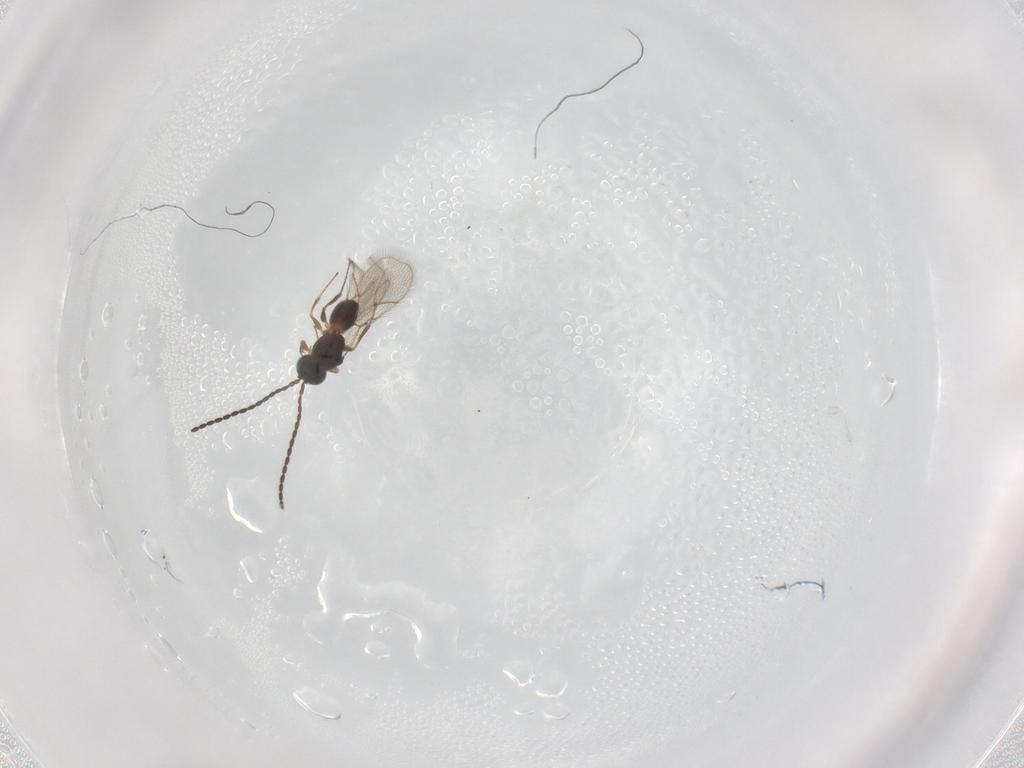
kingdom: Animalia
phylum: Arthropoda
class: Insecta
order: Hymenoptera
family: Figitidae
